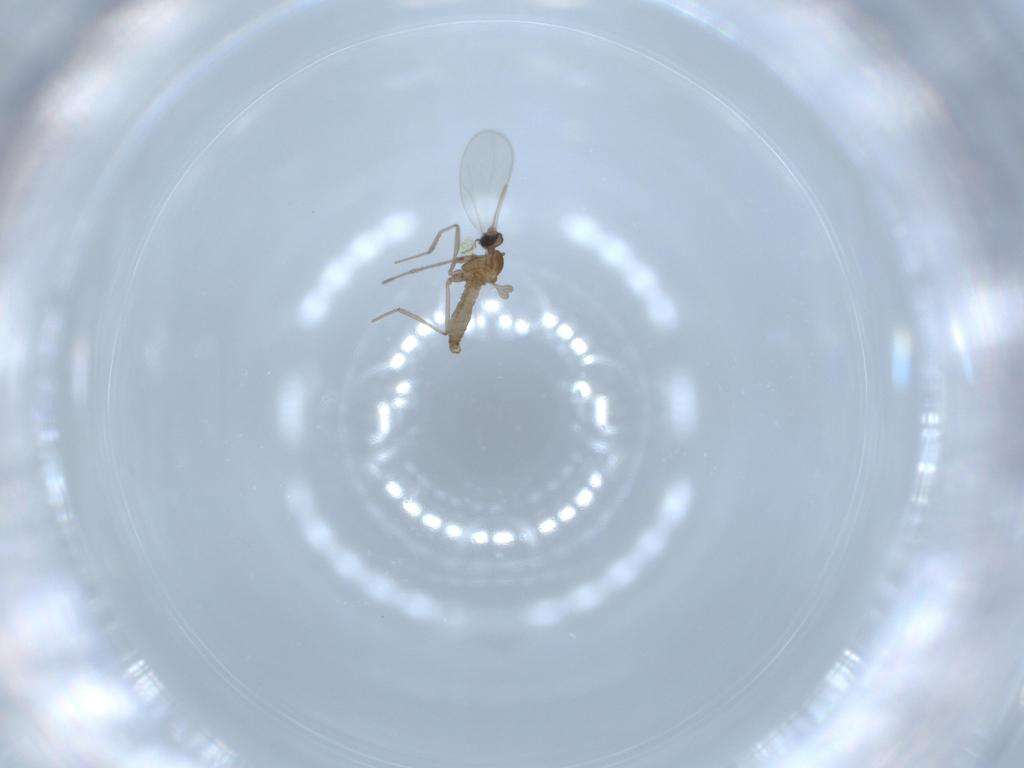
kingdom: Animalia
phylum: Arthropoda
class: Insecta
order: Diptera
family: Cecidomyiidae
